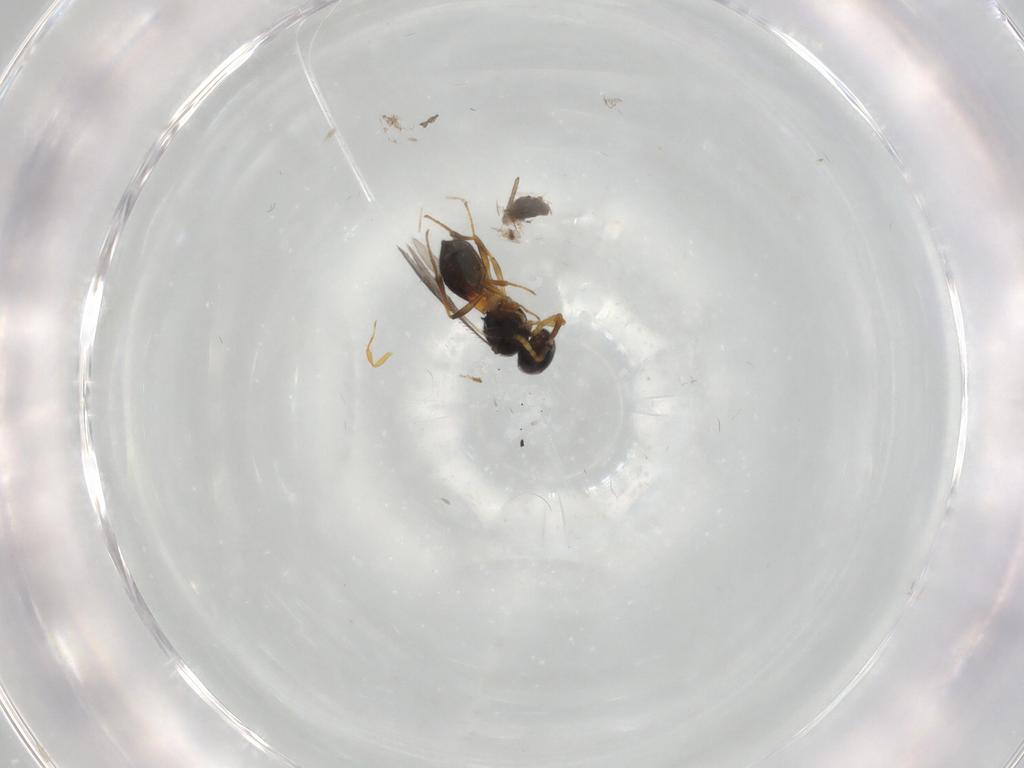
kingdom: Animalia
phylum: Arthropoda
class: Insecta
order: Hymenoptera
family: Scelionidae
